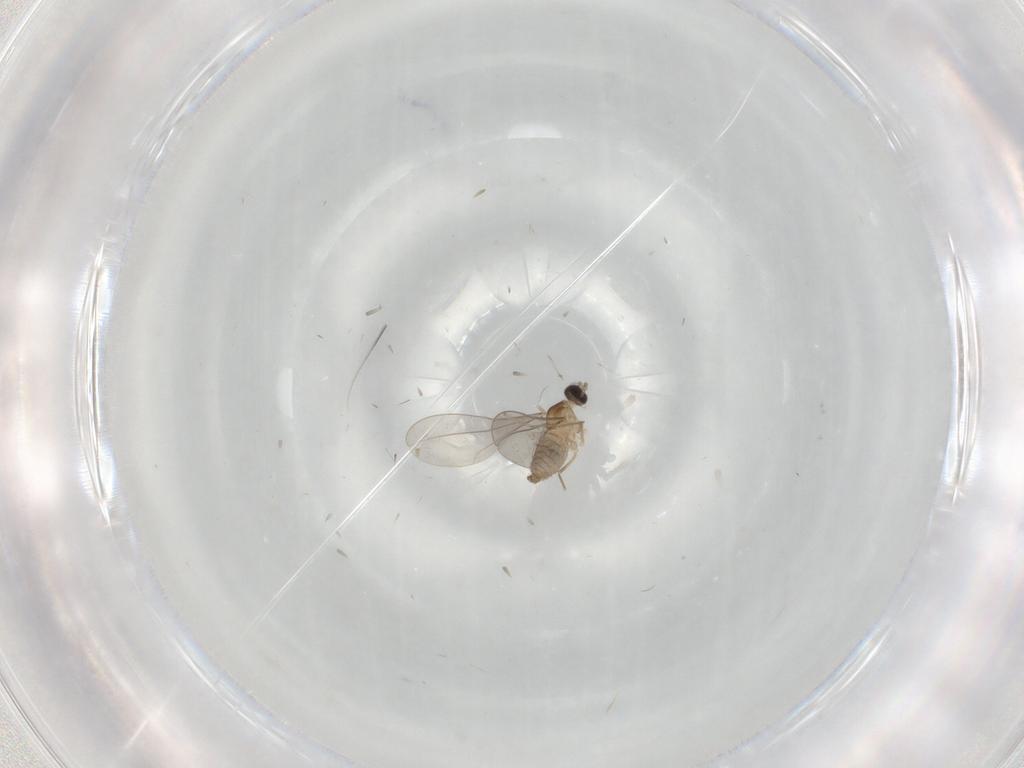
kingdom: Animalia
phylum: Arthropoda
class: Insecta
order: Diptera
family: Cecidomyiidae
